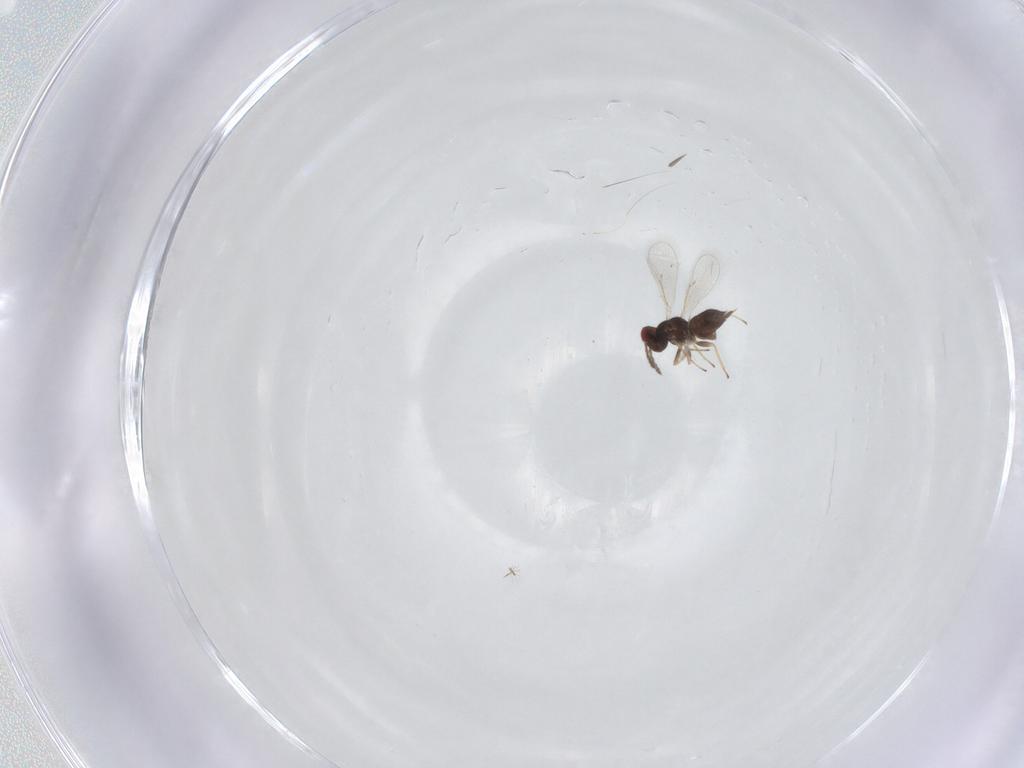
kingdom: Animalia
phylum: Arthropoda
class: Insecta
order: Hymenoptera
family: Eulophidae
